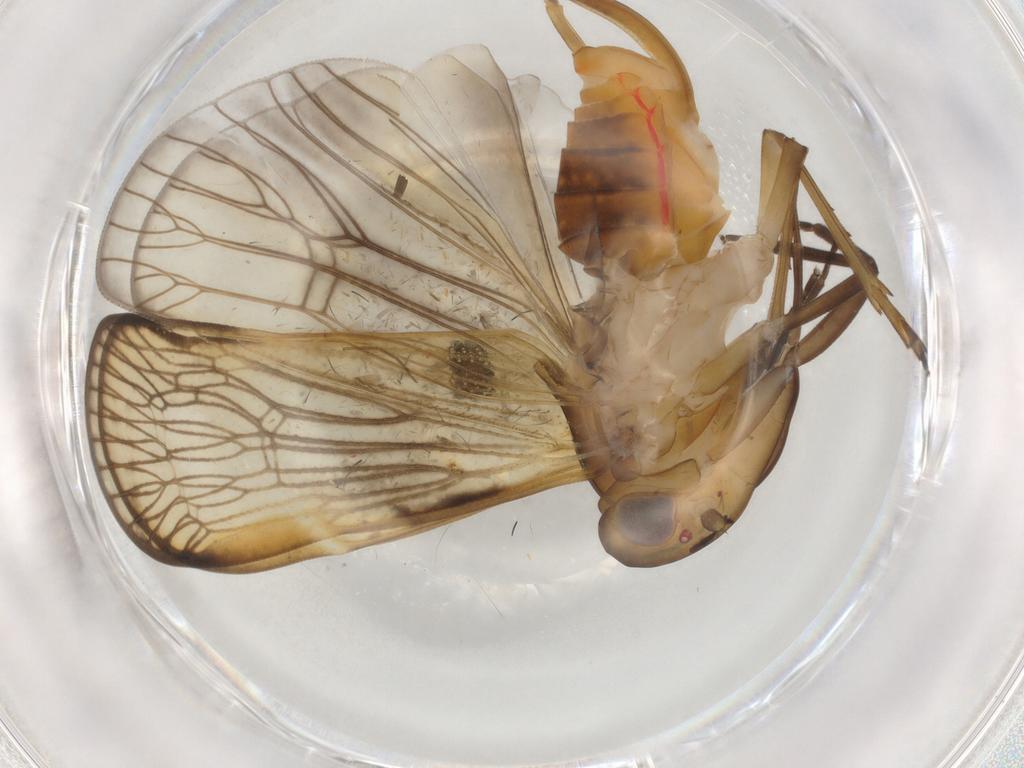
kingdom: Animalia
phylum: Arthropoda
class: Insecta
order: Hemiptera
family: Cixiidae
